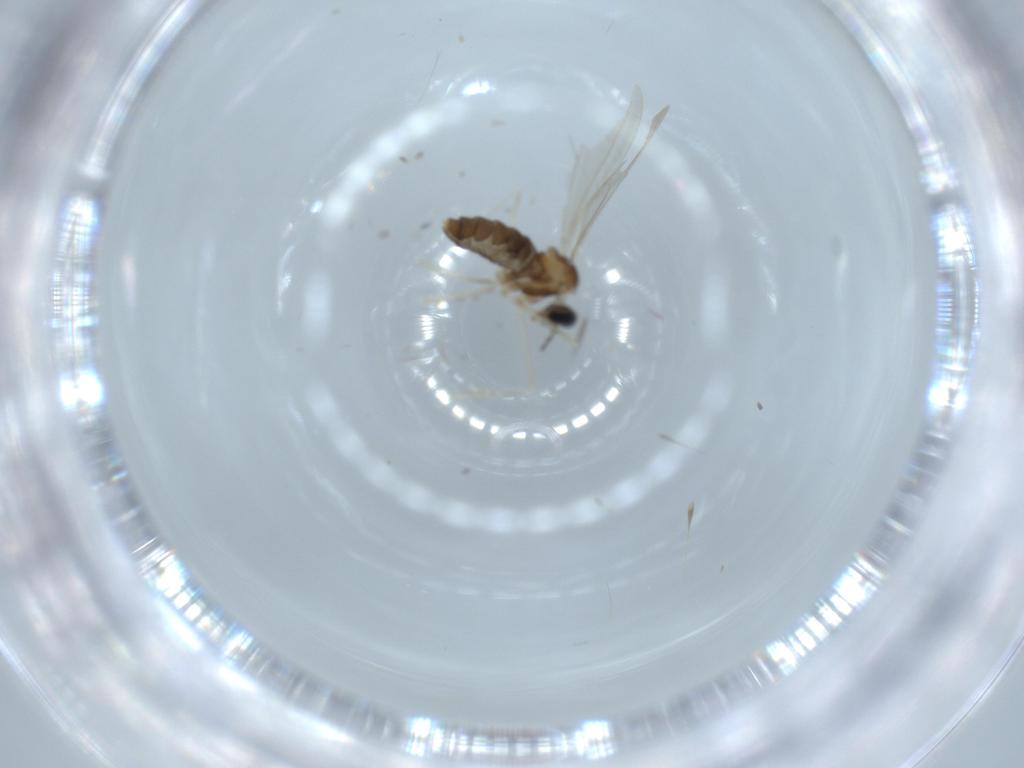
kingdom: Animalia
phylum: Arthropoda
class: Insecta
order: Diptera
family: Cecidomyiidae
